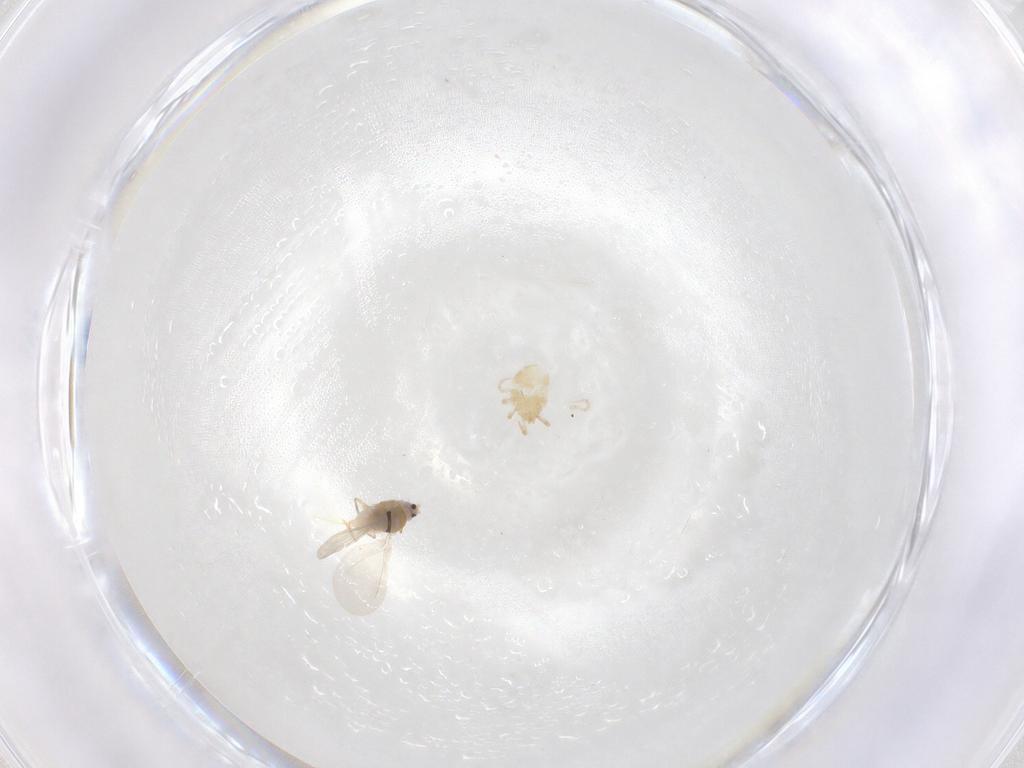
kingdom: Animalia
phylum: Arthropoda
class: Arachnida
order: Mesostigmata
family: Phytoseiidae
